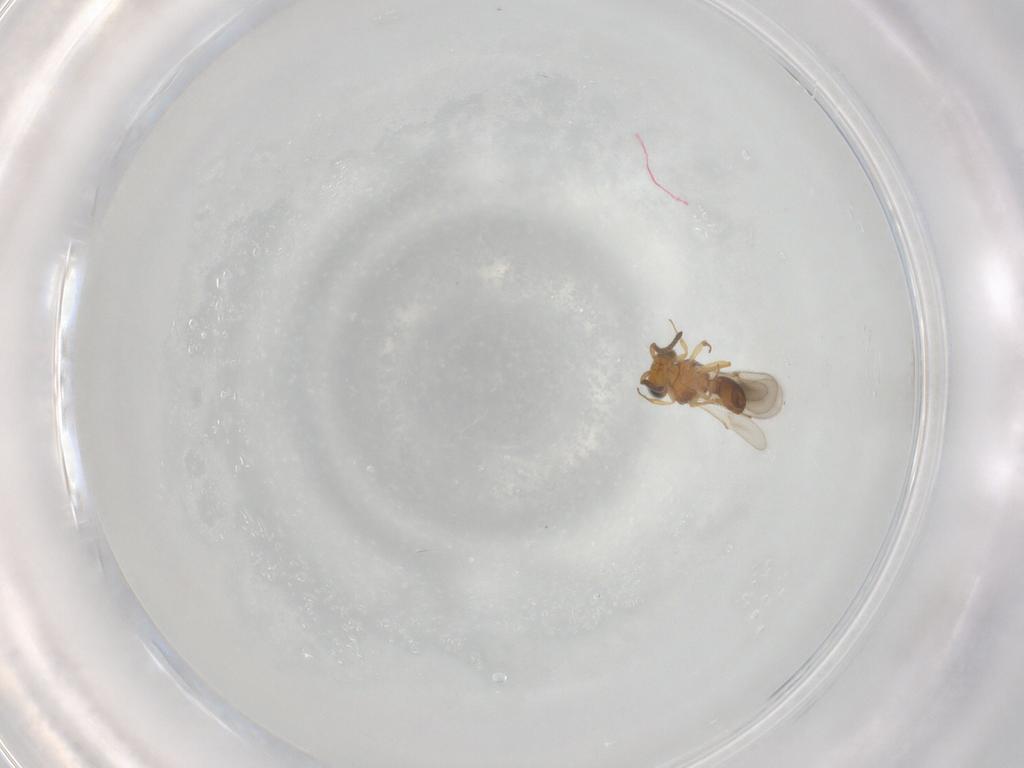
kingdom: Animalia
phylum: Arthropoda
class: Insecta
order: Hymenoptera
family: Scelionidae
